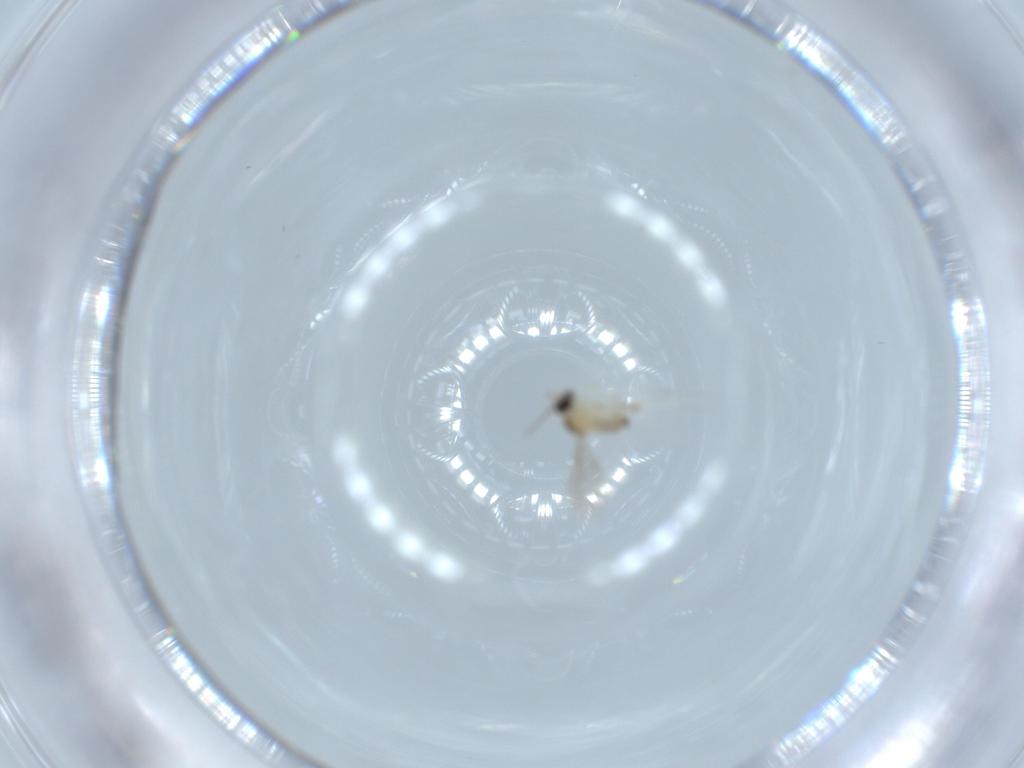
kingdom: Animalia
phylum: Arthropoda
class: Insecta
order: Diptera
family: Cecidomyiidae
